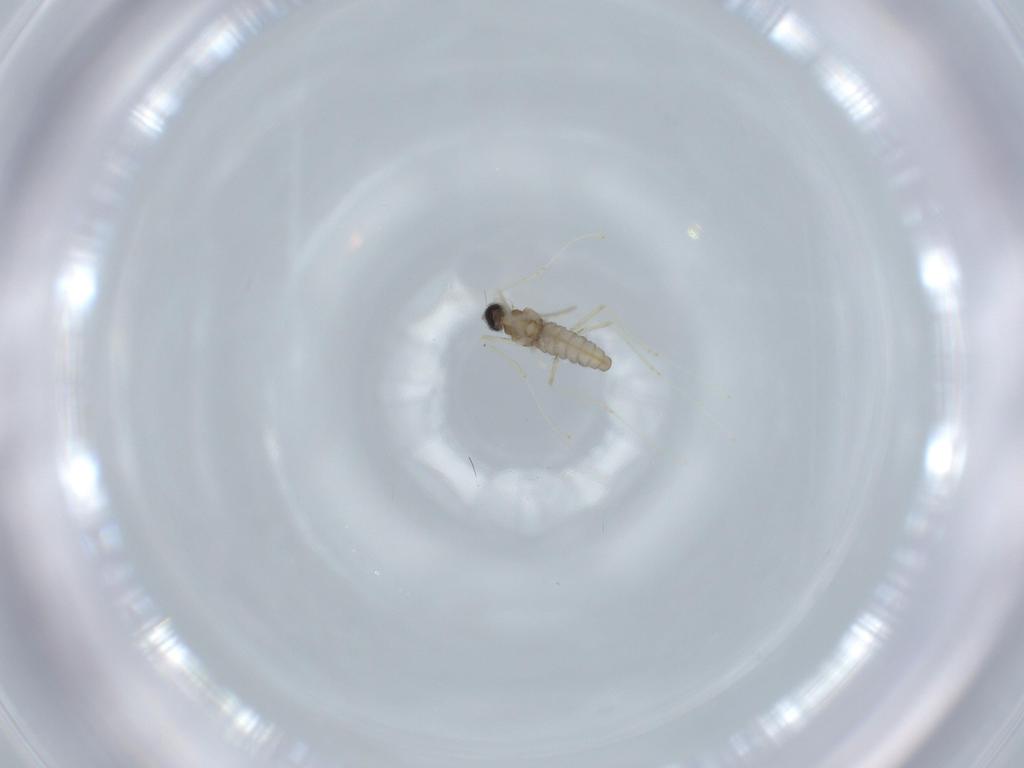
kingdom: Animalia
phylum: Arthropoda
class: Insecta
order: Diptera
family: Cecidomyiidae
